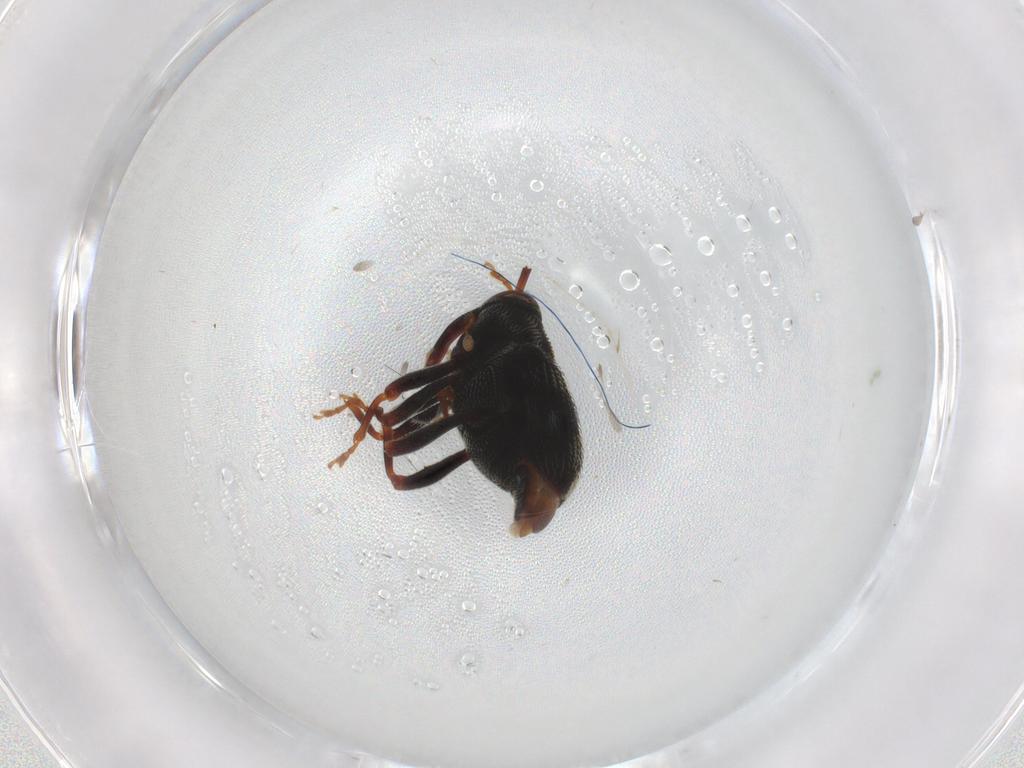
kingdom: Animalia
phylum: Arthropoda
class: Insecta
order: Coleoptera
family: Curculionidae
